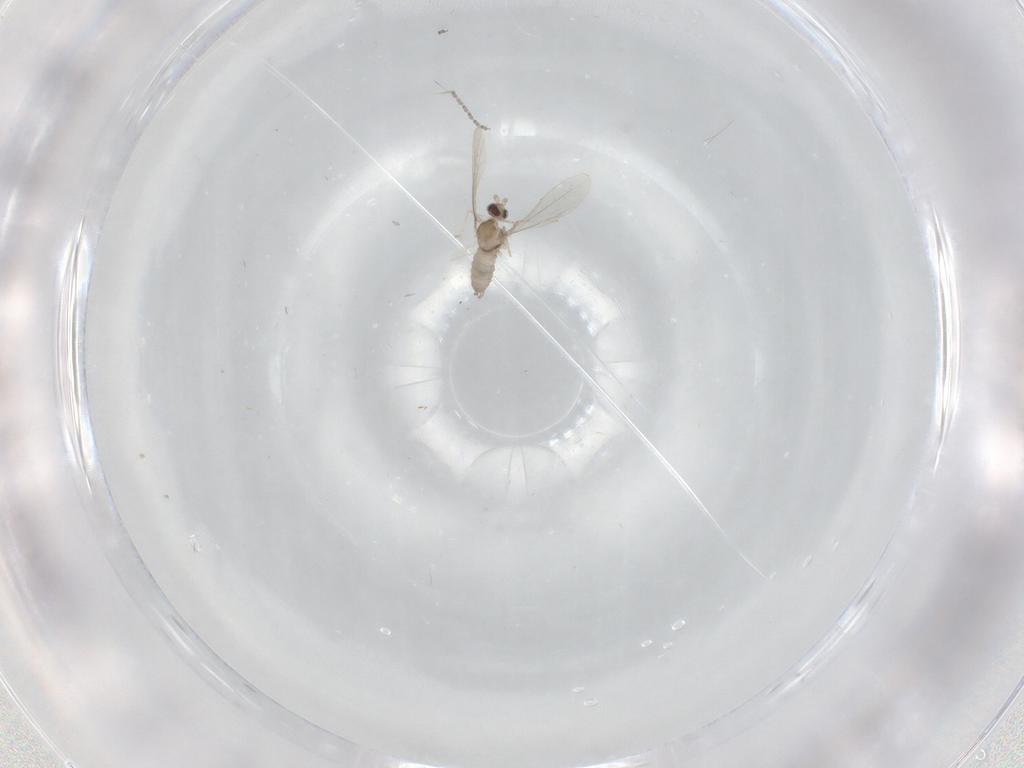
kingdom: Animalia
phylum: Arthropoda
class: Insecta
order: Diptera
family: Cecidomyiidae
